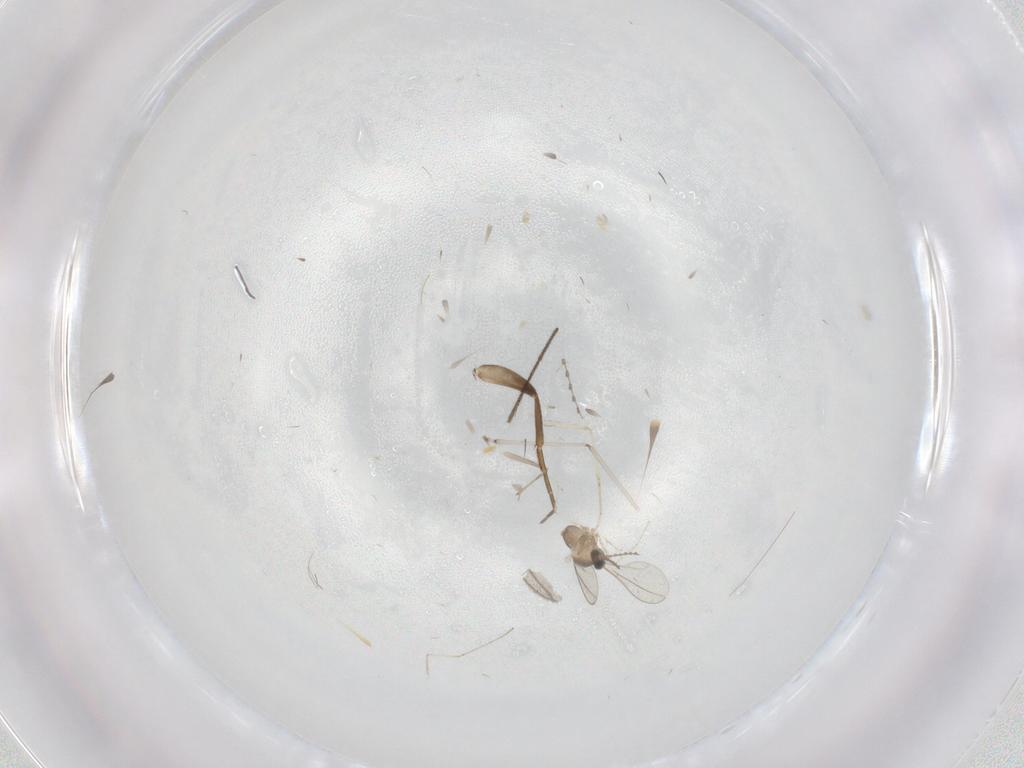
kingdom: Animalia
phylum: Arthropoda
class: Insecta
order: Diptera
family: Cecidomyiidae
